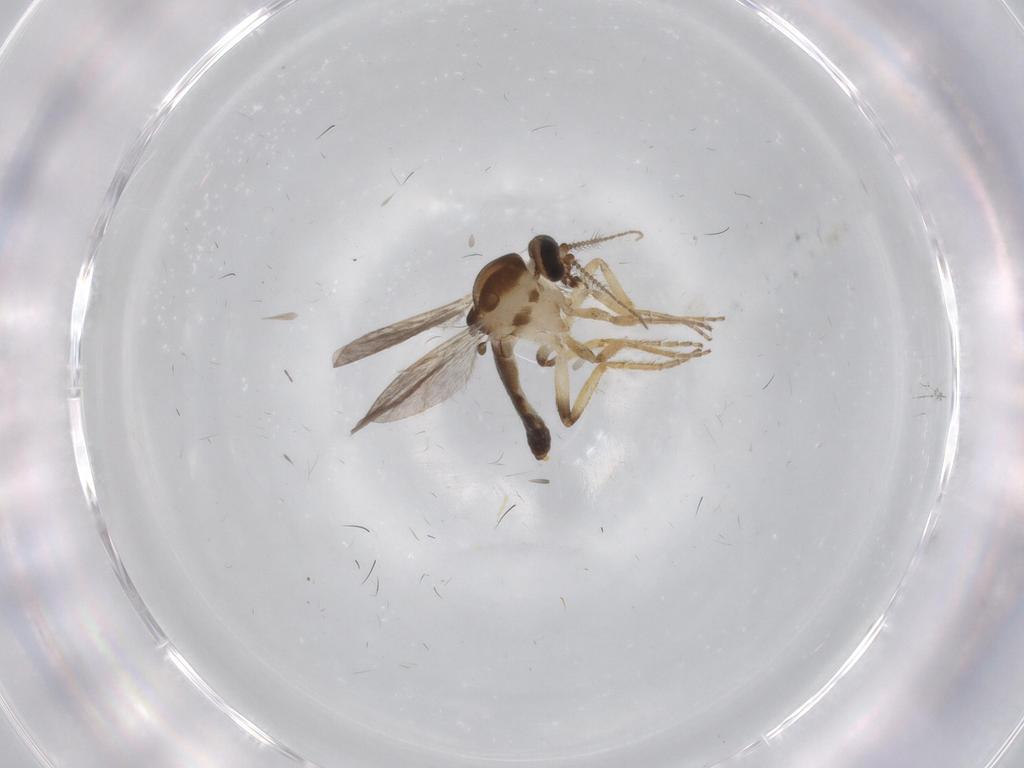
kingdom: Animalia
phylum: Arthropoda
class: Insecta
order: Diptera
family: Ceratopogonidae
